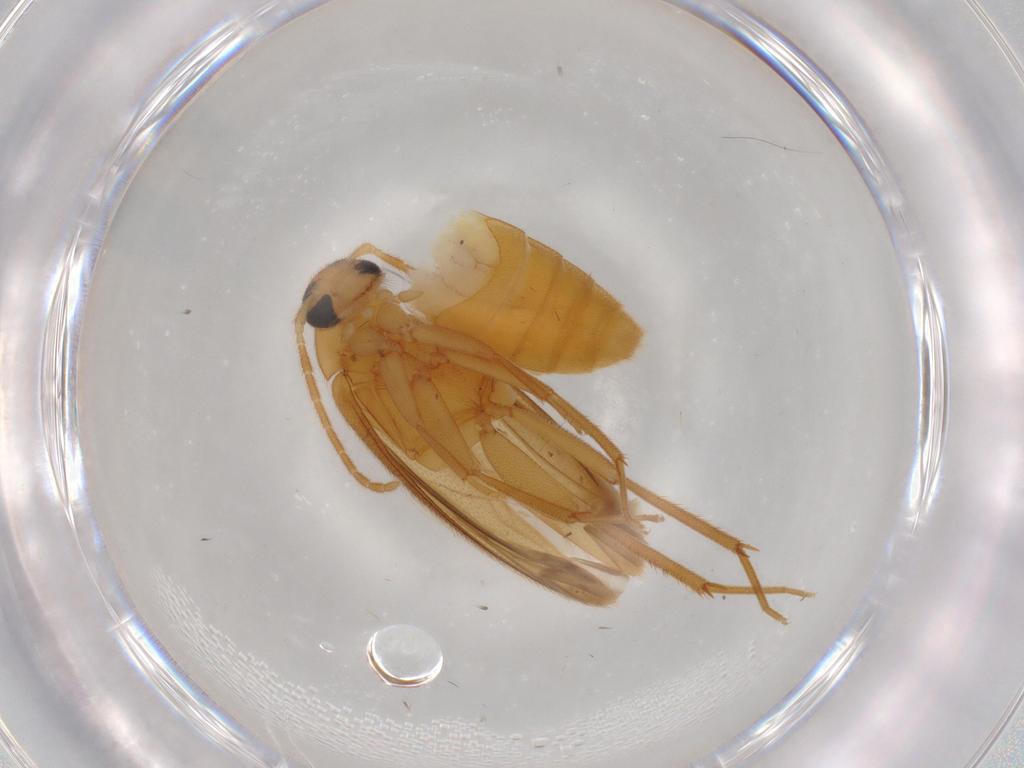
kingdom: Animalia
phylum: Arthropoda
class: Insecta
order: Coleoptera
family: Scraptiidae
